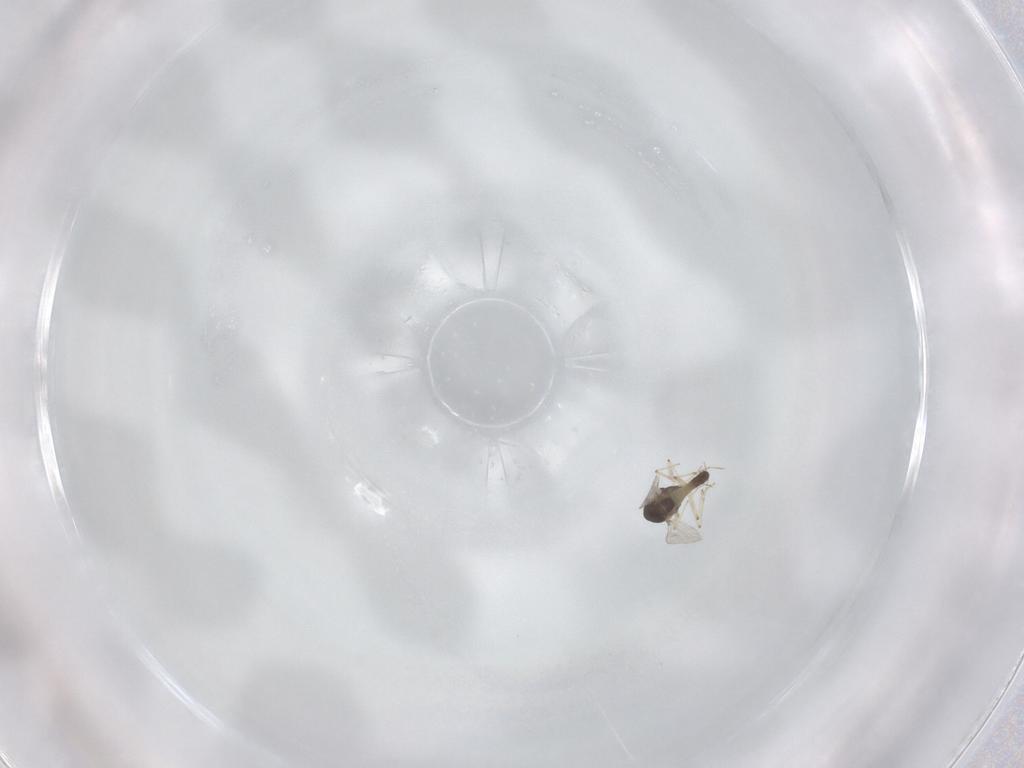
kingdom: Animalia
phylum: Arthropoda
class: Insecta
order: Diptera
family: Chironomidae
